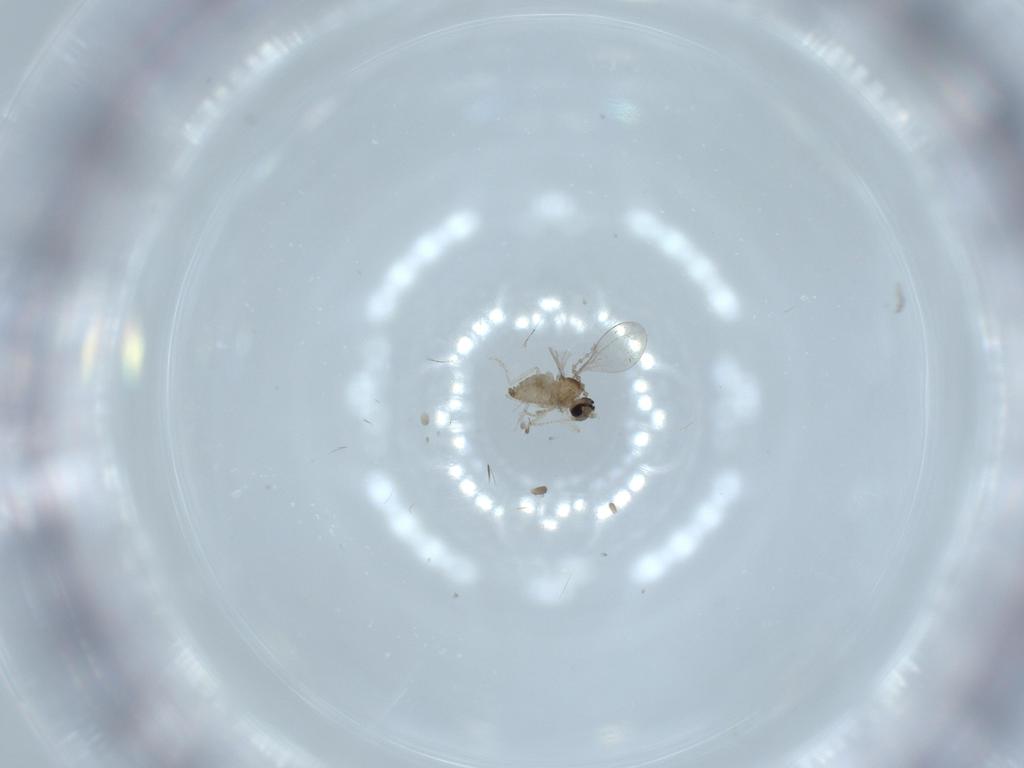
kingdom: Animalia
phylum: Arthropoda
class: Insecta
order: Diptera
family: Cecidomyiidae
